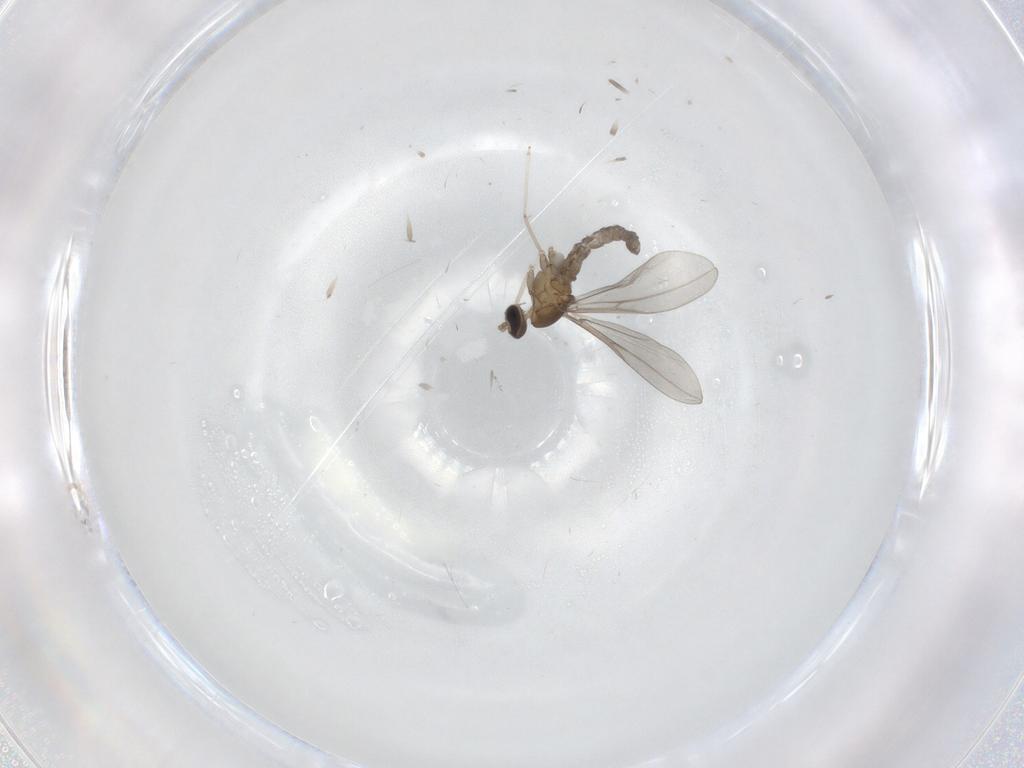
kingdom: Animalia
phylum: Arthropoda
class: Insecta
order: Diptera
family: Cecidomyiidae
